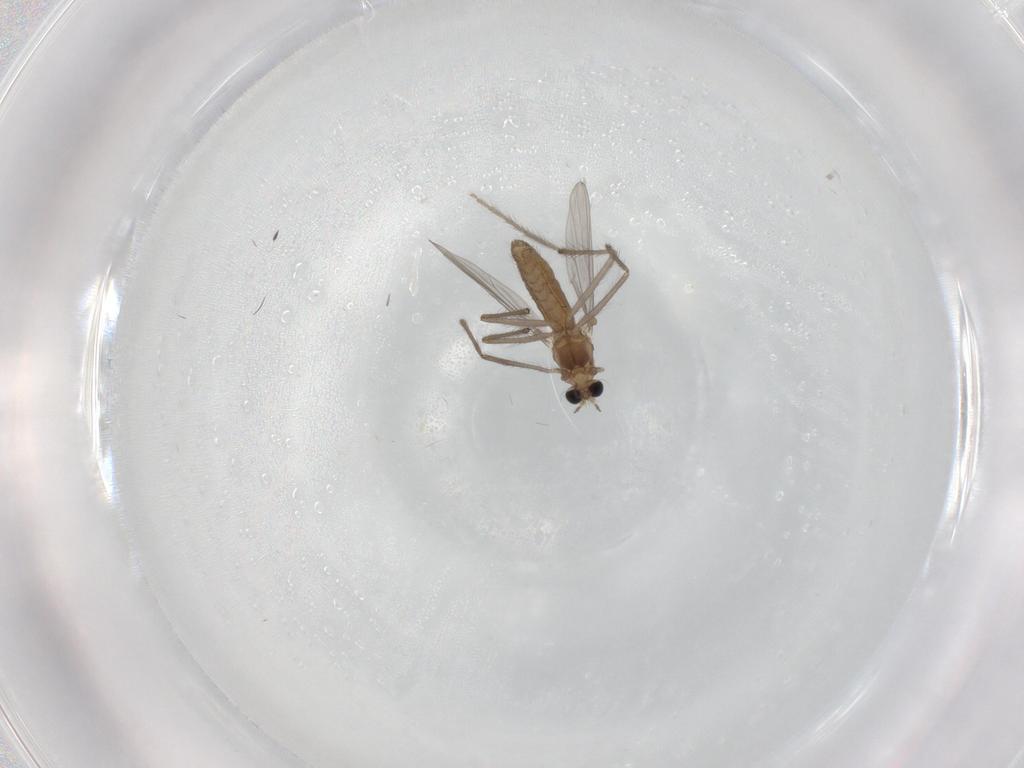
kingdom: Animalia
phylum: Arthropoda
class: Insecta
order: Diptera
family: Chironomidae
